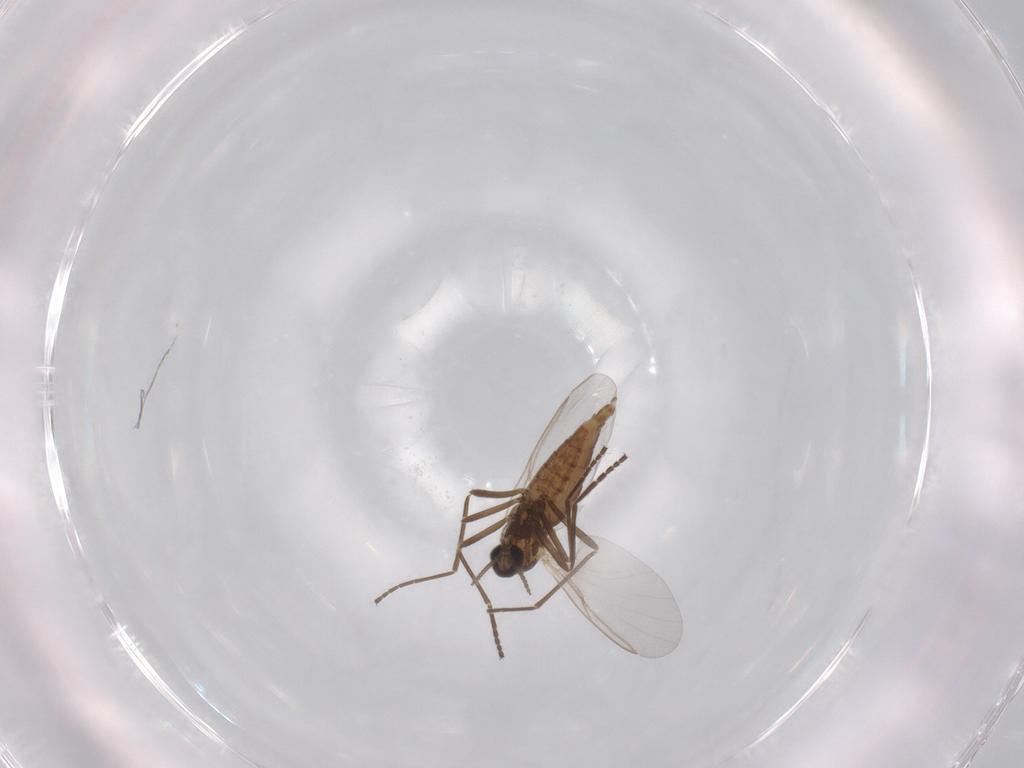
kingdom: Animalia
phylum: Arthropoda
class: Insecta
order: Diptera
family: Cecidomyiidae
